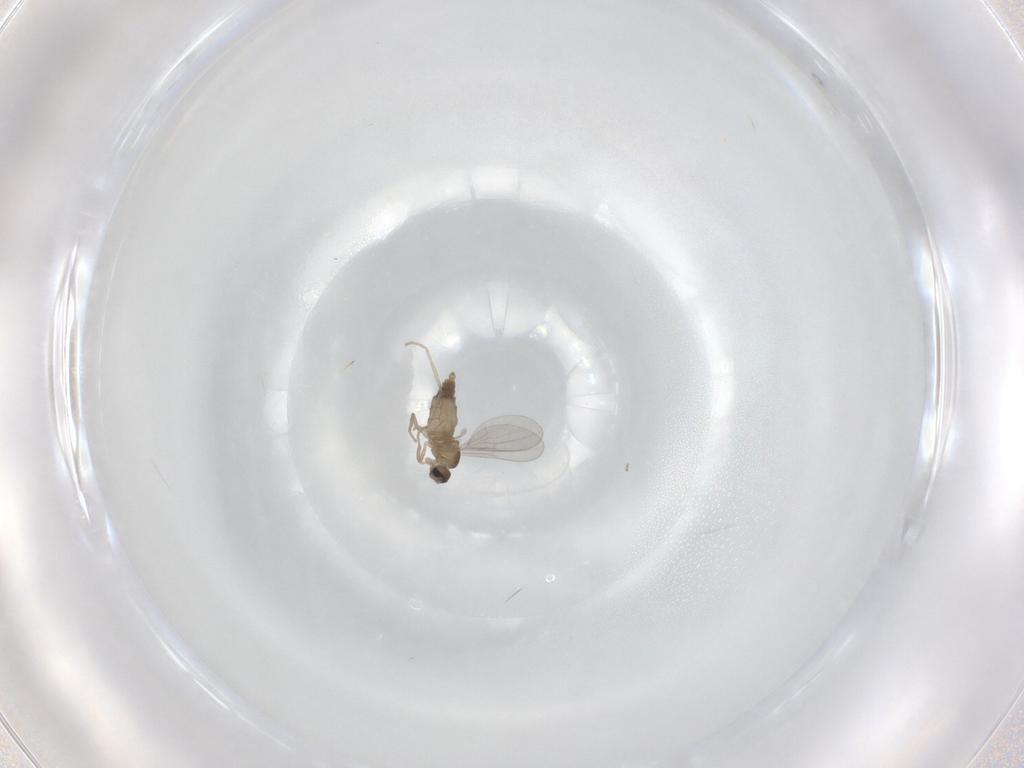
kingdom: Animalia
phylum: Arthropoda
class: Insecta
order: Diptera
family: Cecidomyiidae
